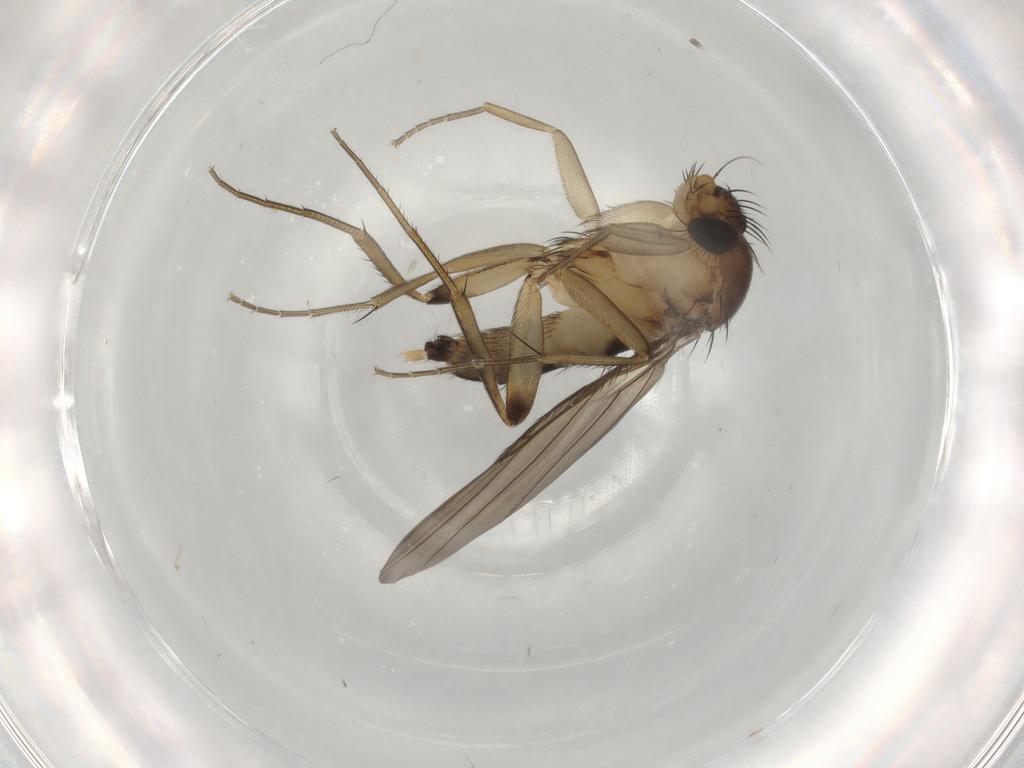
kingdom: Animalia
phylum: Arthropoda
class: Insecta
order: Diptera
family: Phoridae
